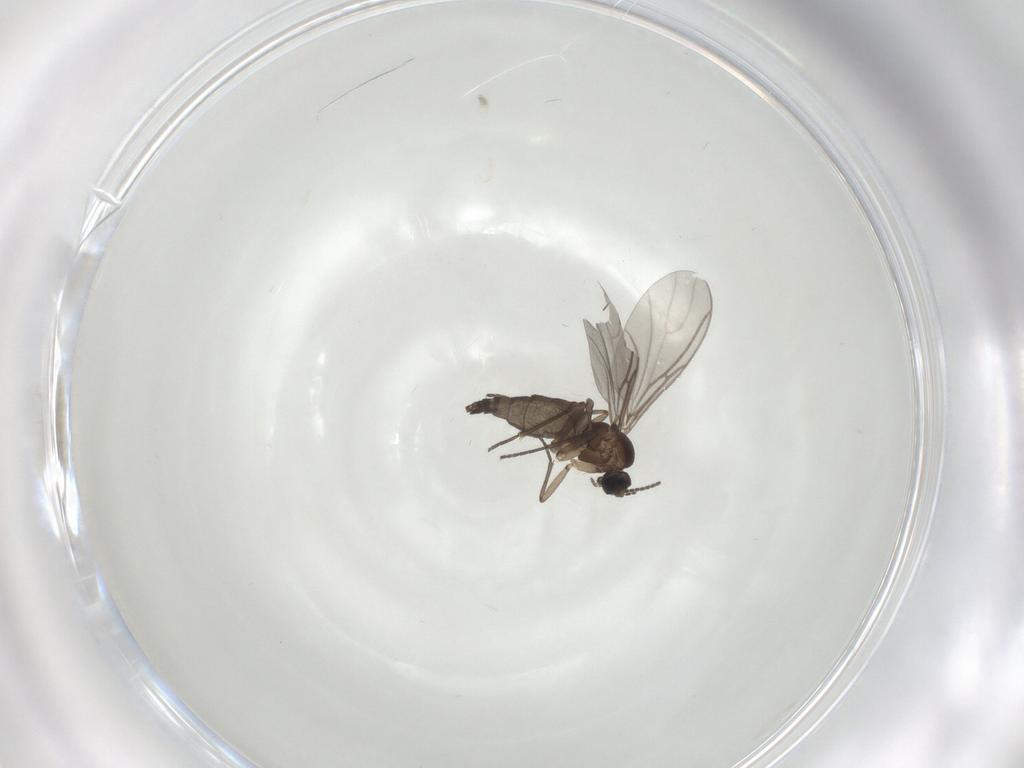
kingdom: Animalia
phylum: Arthropoda
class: Insecta
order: Diptera
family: Sciaridae
